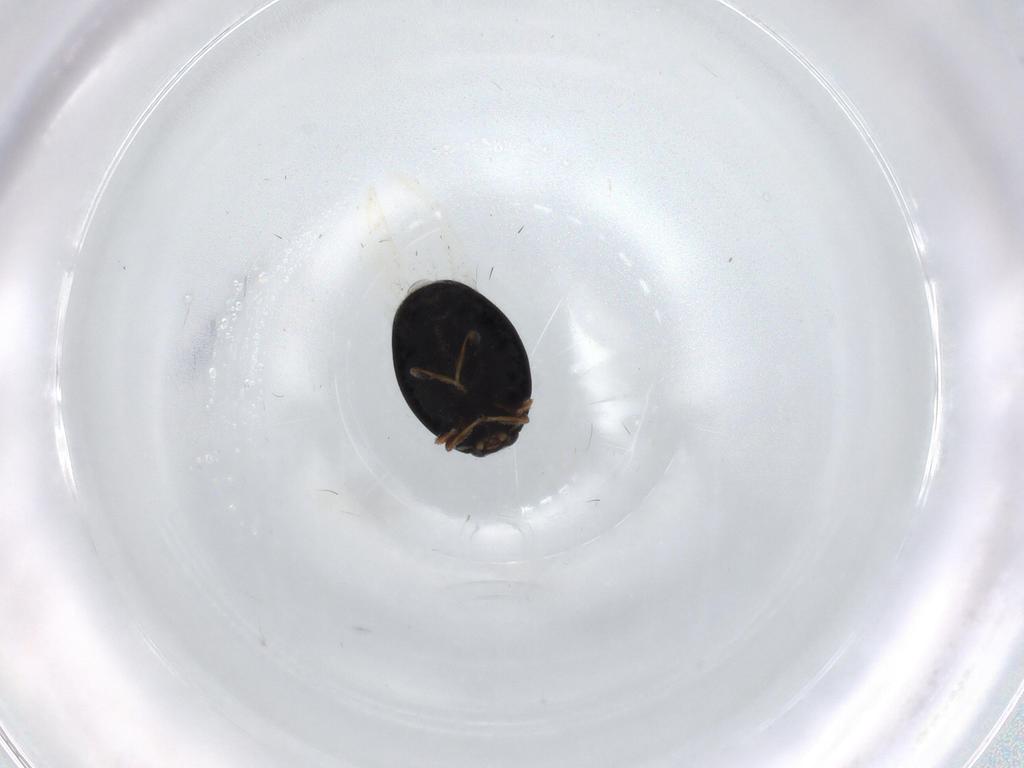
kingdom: Animalia
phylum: Arthropoda
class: Insecta
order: Coleoptera
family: Coccinellidae
